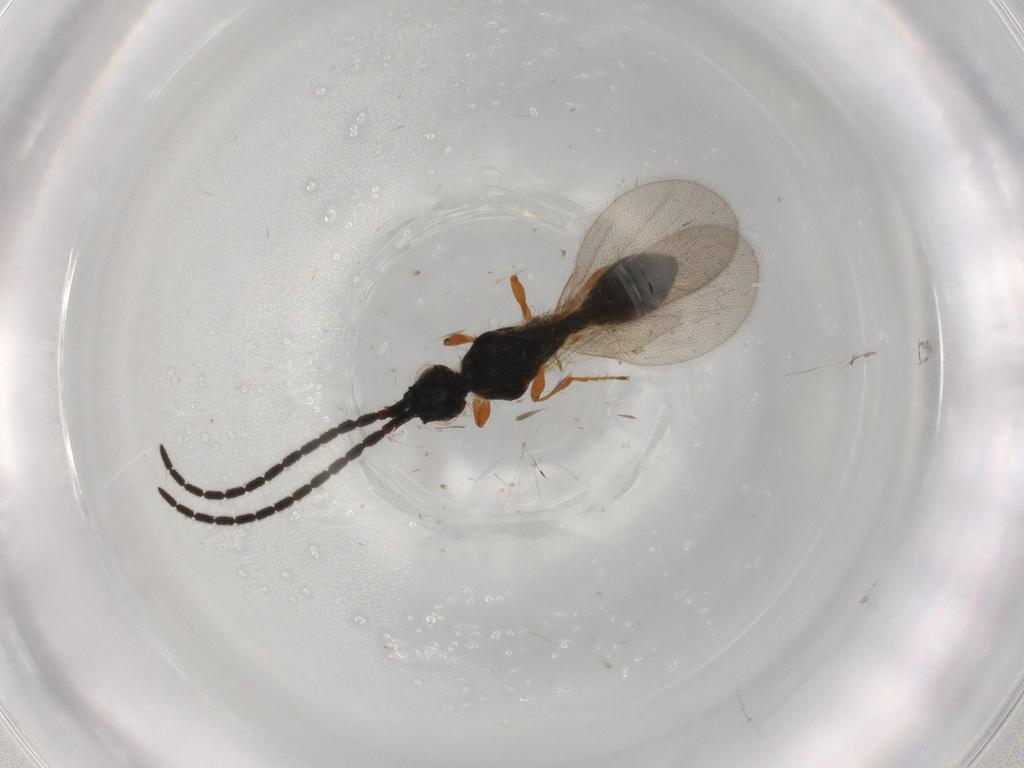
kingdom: Animalia
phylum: Arthropoda
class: Insecta
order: Hymenoptera
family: Diapriidae
